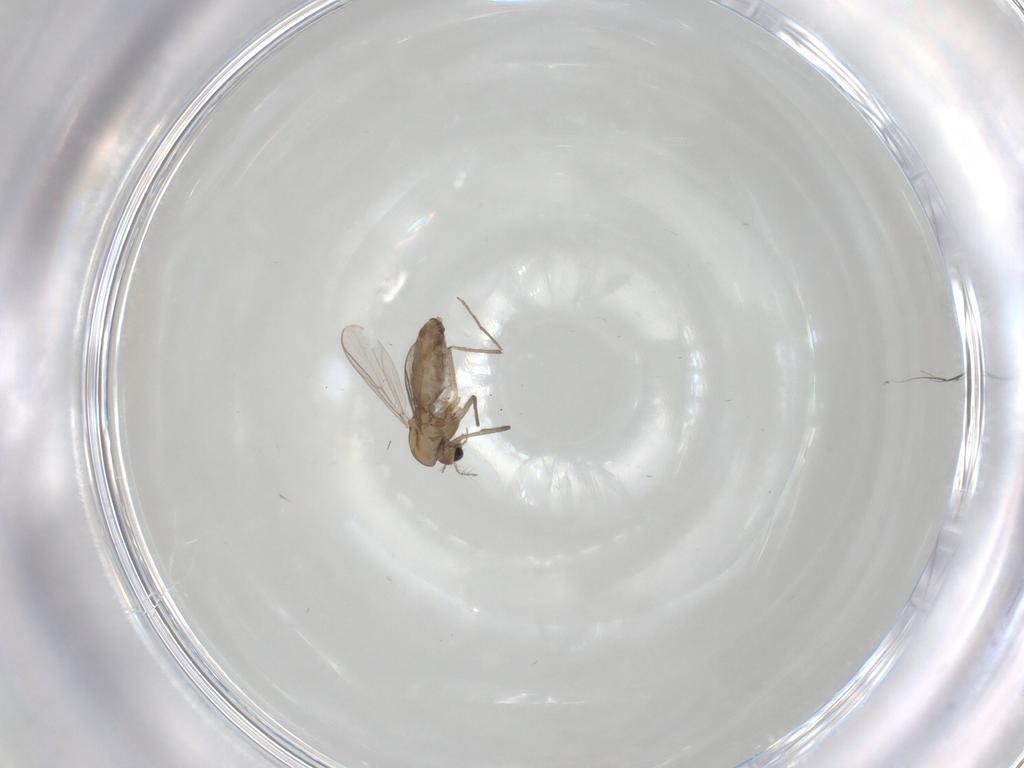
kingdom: Animalia
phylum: Arthropoda
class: Insecta
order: Diptera
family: Chironomidae
